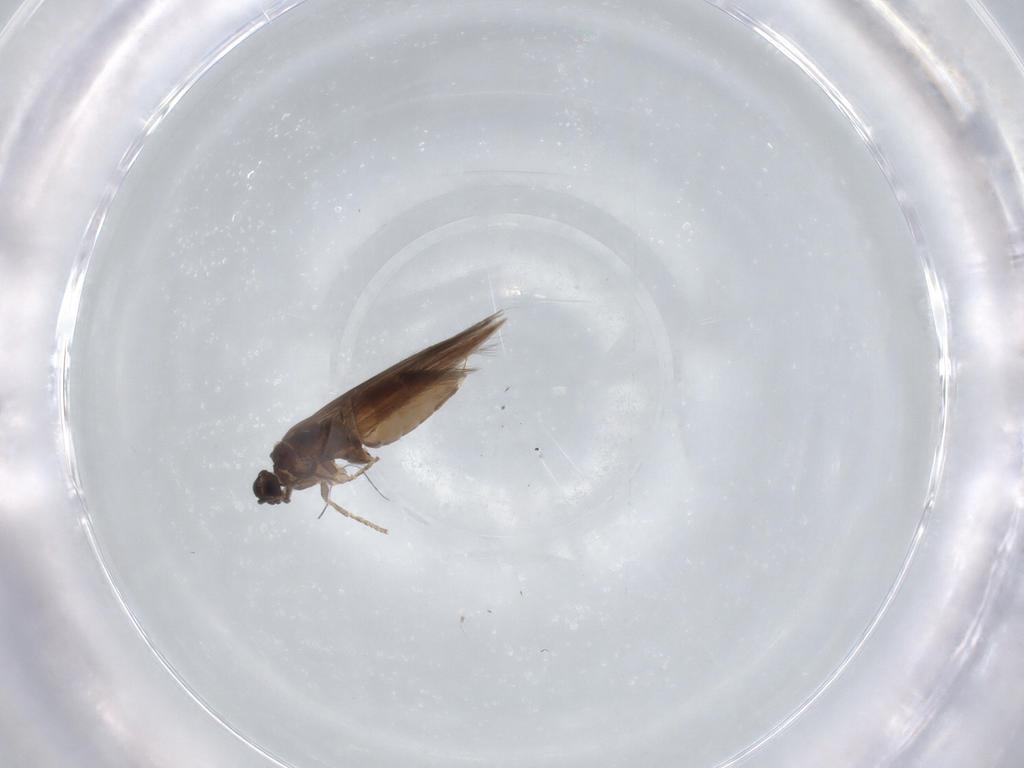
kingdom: Animalia
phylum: Arthropoda
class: Insecta
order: Trichoptera
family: Hydroptilidae
